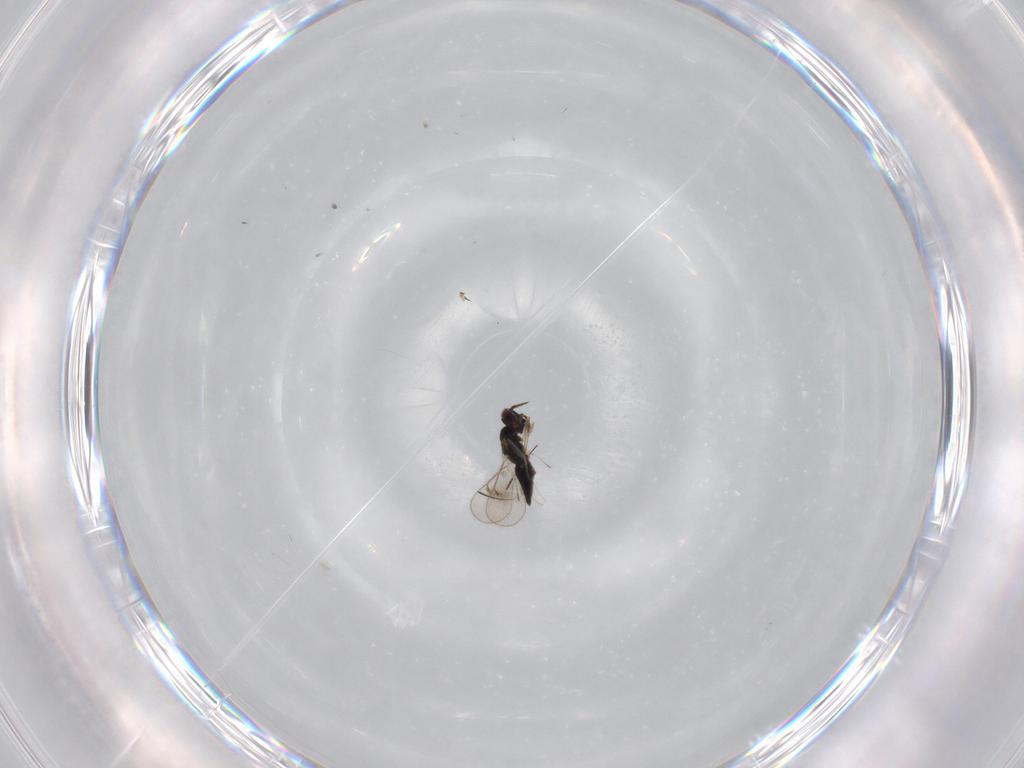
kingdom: Animalia
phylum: Arthropoda
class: Insecta
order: Hymenoptera
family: Eulophidae
